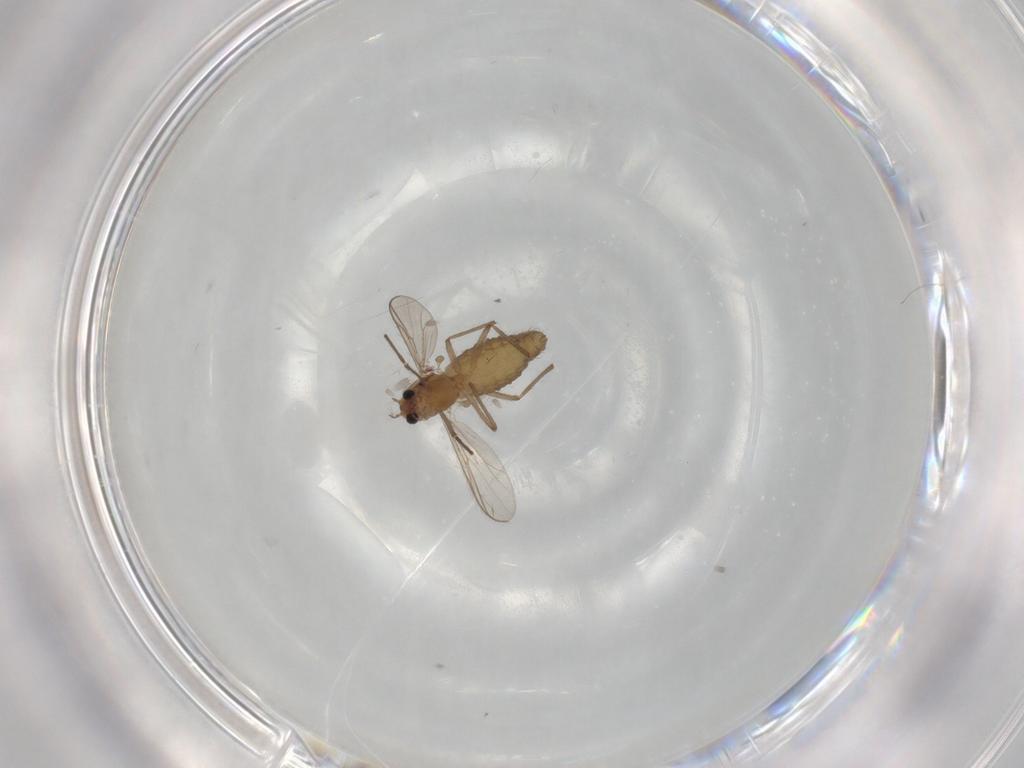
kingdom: Animalia
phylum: Arthropoda
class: Insecta
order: Diptera
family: Chironomidae
